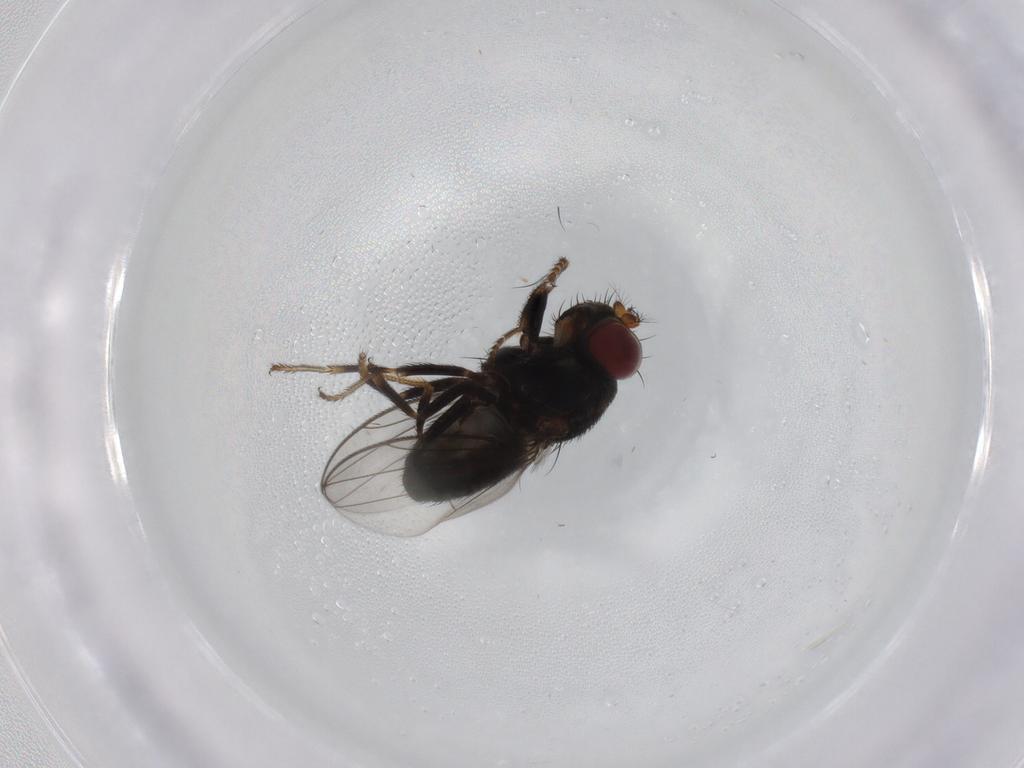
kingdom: Animalia
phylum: Arthropoda
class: Insecta
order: Diptera
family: Ephydridae
